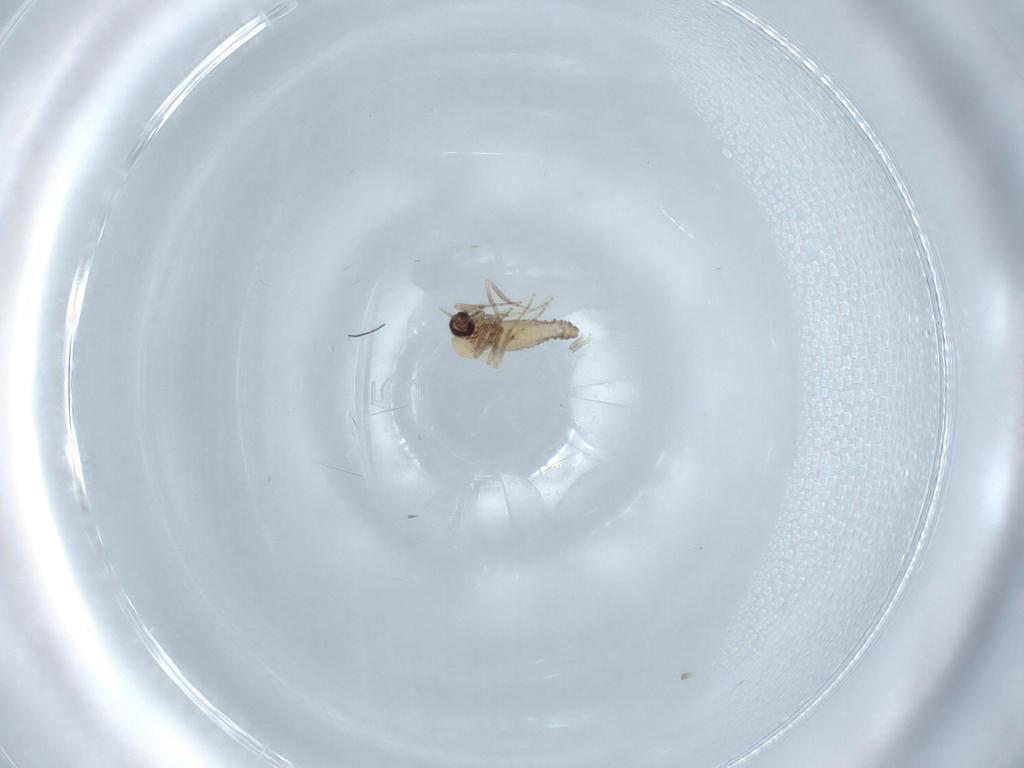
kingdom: Animalia
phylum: Arthropoda
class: Insecta
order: Diptera
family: Ceratopogonidae
